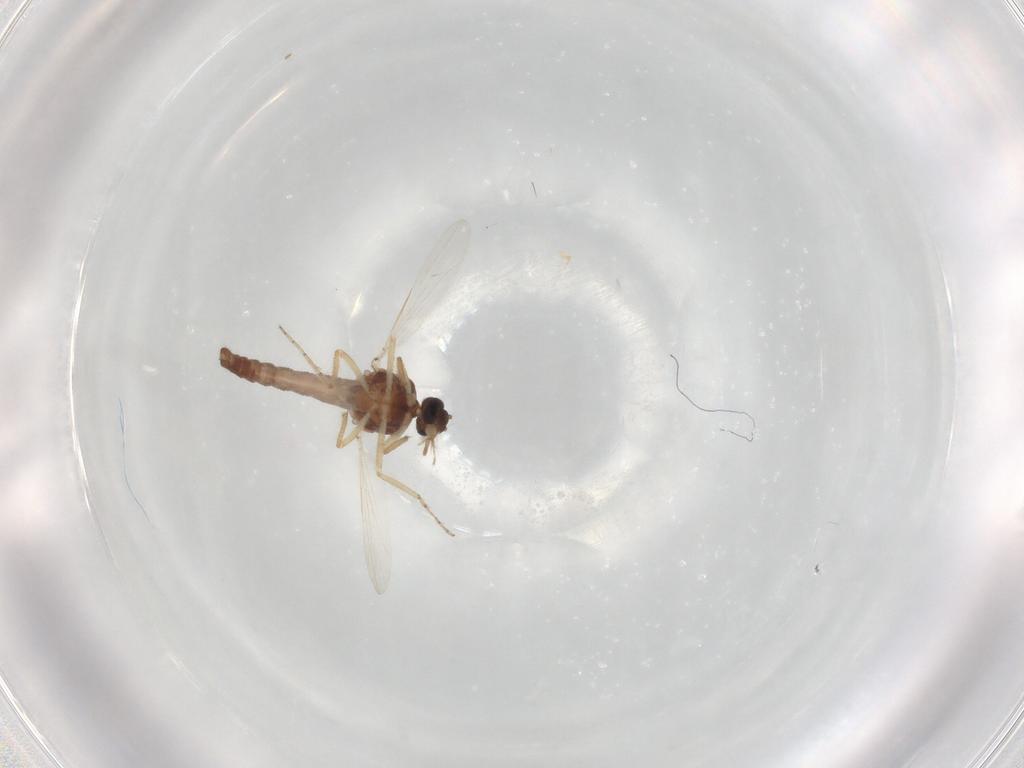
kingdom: Animalia
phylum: Arthropoda
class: Insecta
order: Diptera
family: Ceratopogonidae
